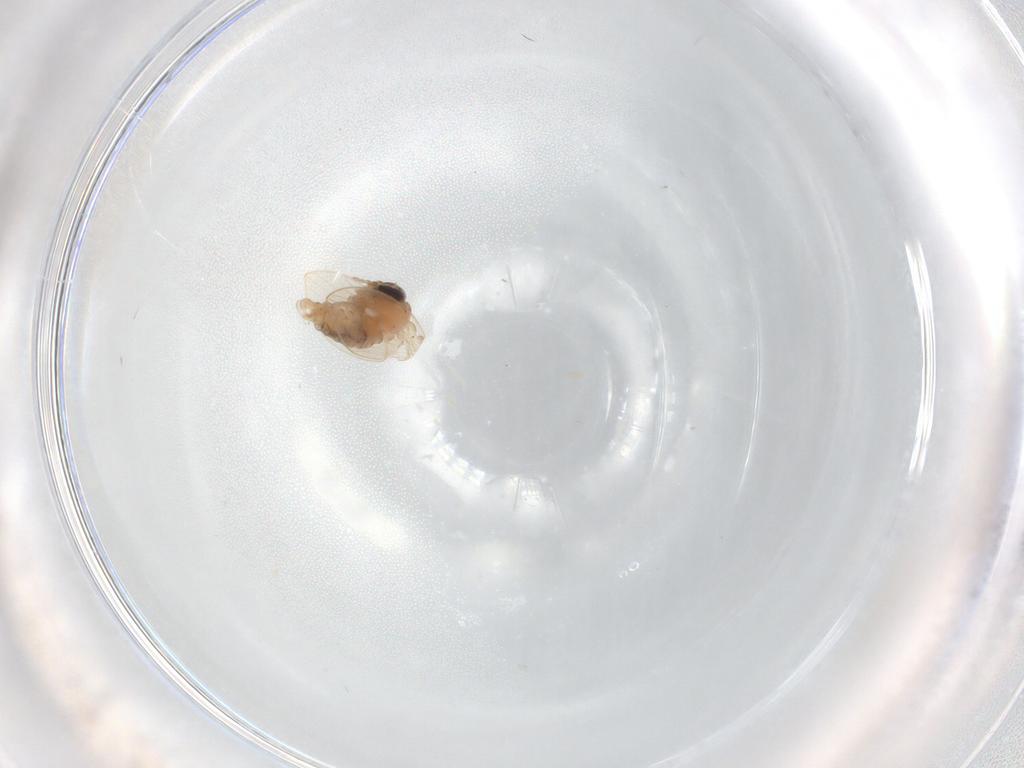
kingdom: Animalia
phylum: Arthropoda
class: Insecta
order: Diptera
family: Psychodidae
